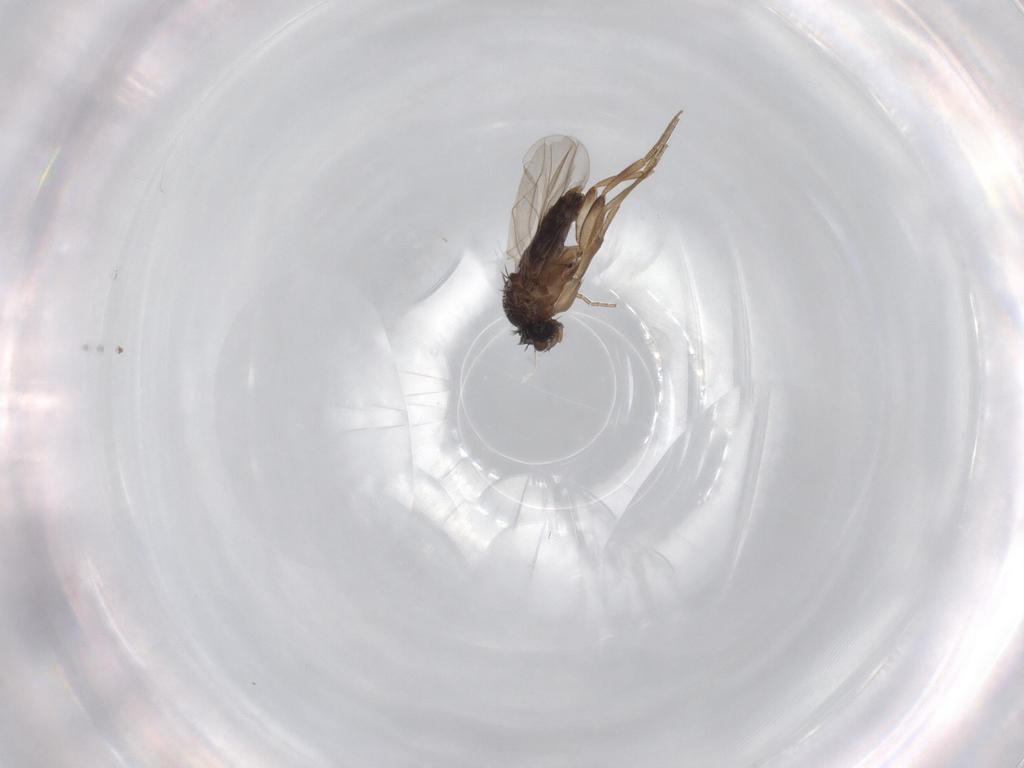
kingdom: Animalia
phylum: Arthropoda
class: Insecta
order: Diptera
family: Phoridae
